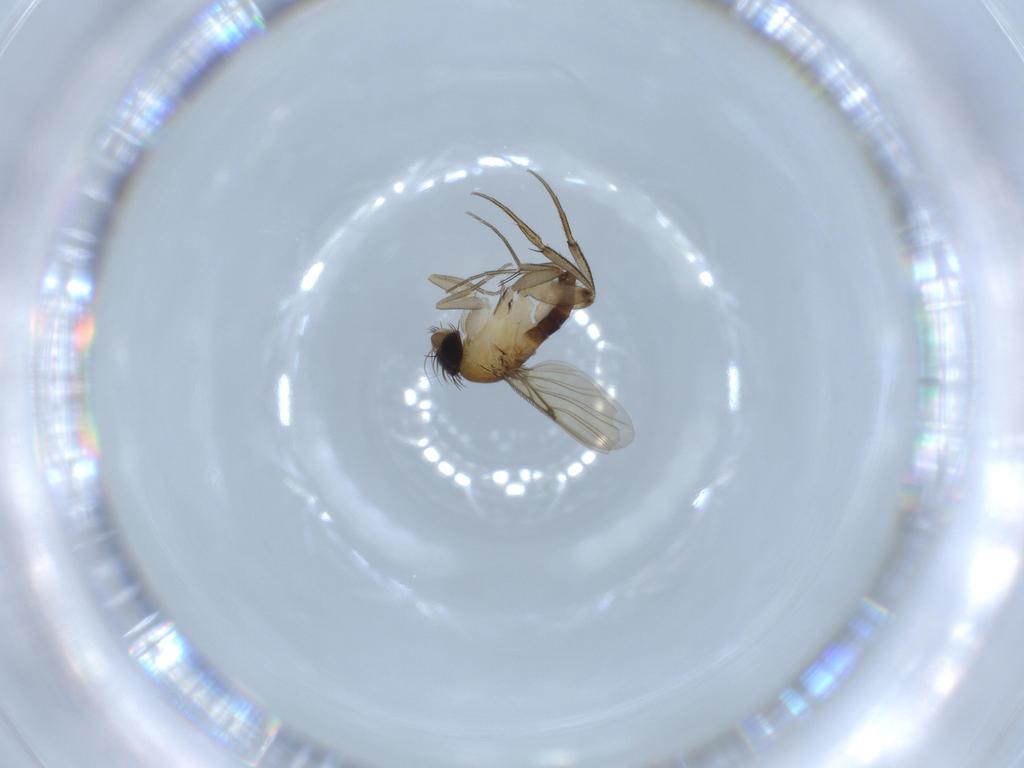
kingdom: Animalia
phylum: Arthropoda
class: Insecta
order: Diptera
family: Phoridae
